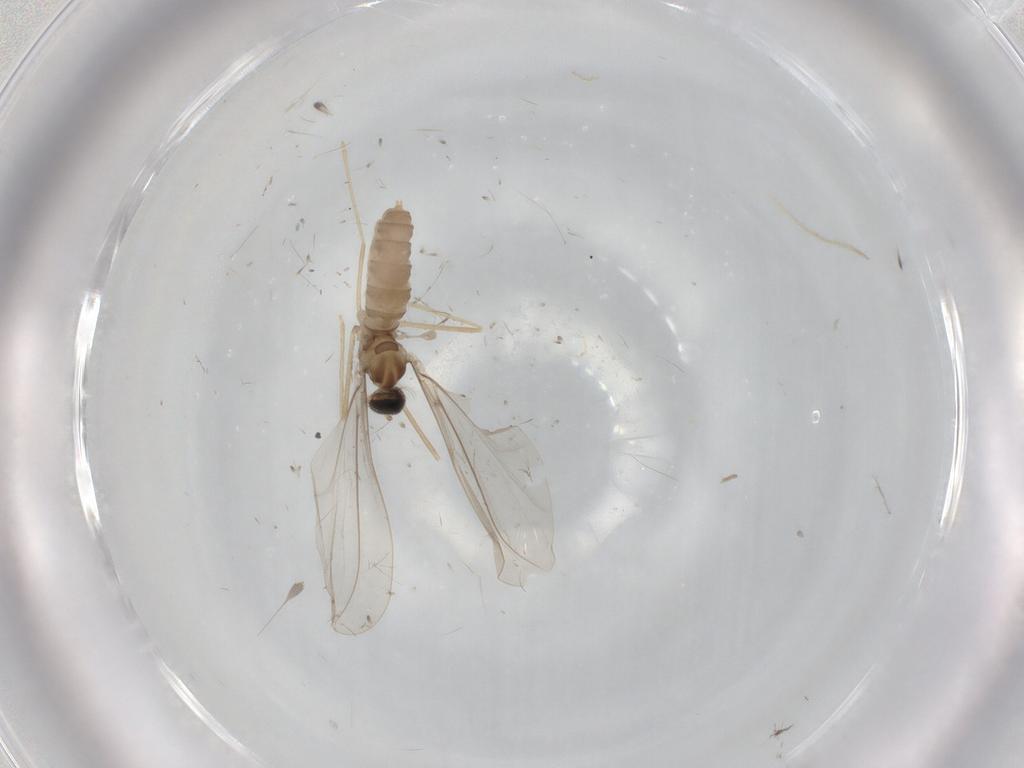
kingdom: Animalia
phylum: Arthropoda
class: Insecta
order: Diptera
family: Cecidomyiidae
